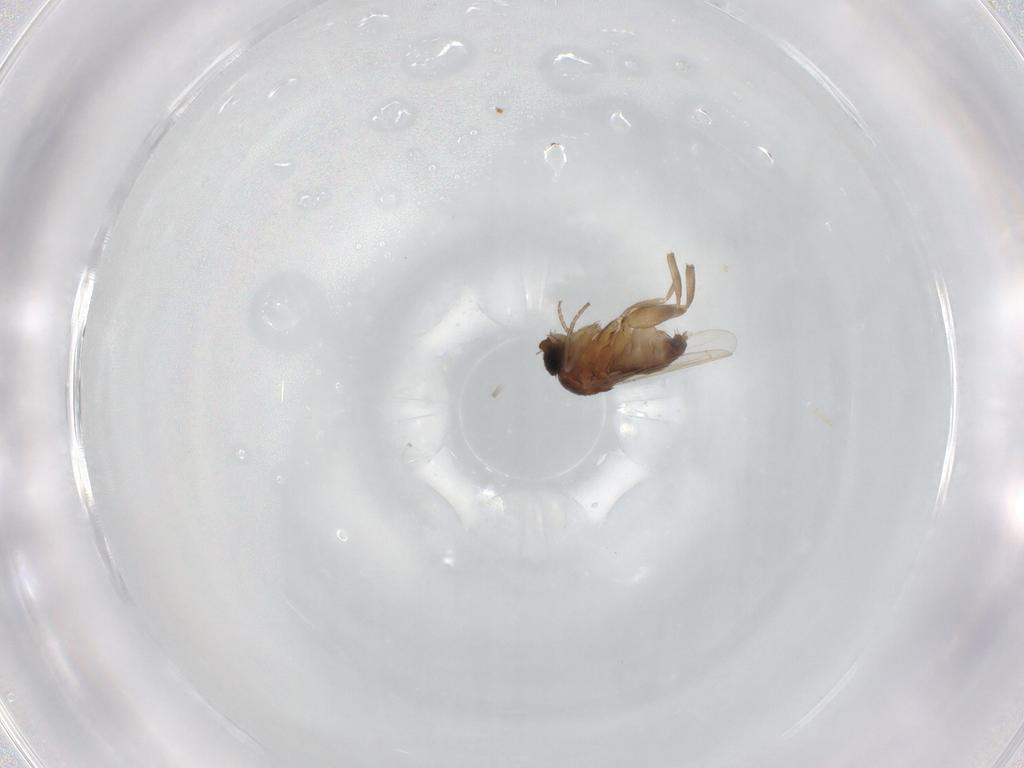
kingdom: Animalia
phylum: Arthropoda
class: Insecta
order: Diptera
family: Phoridae
